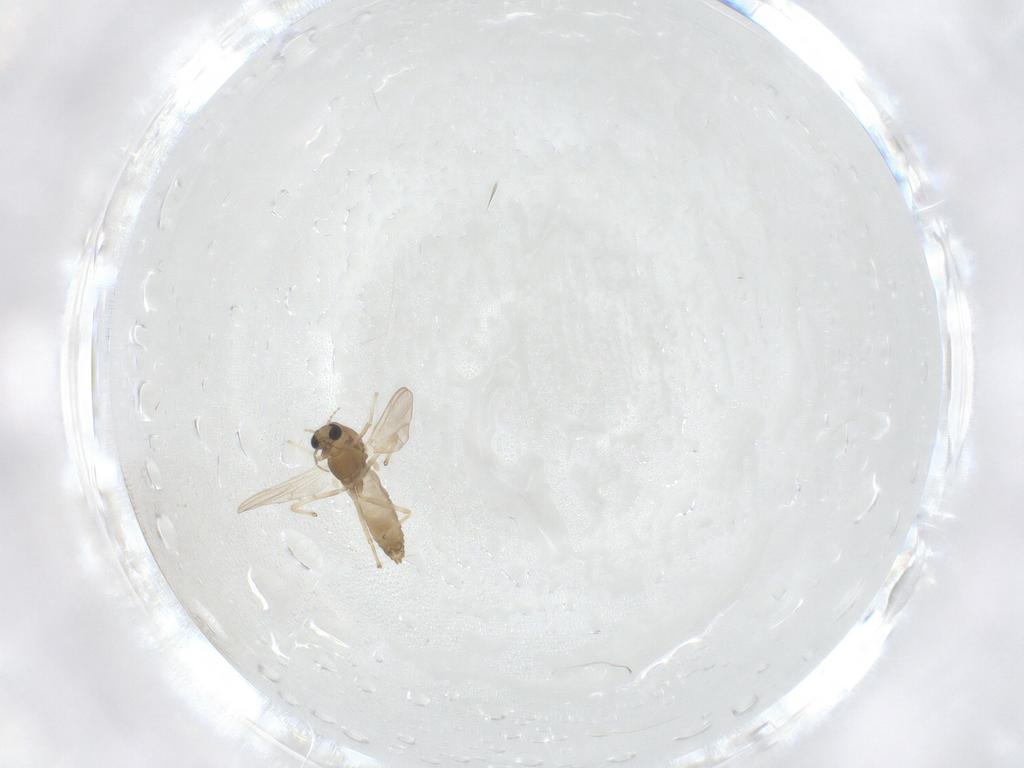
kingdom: Animalia
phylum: Arthropoda
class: Insecta
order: Diptera
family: Chironomidae
